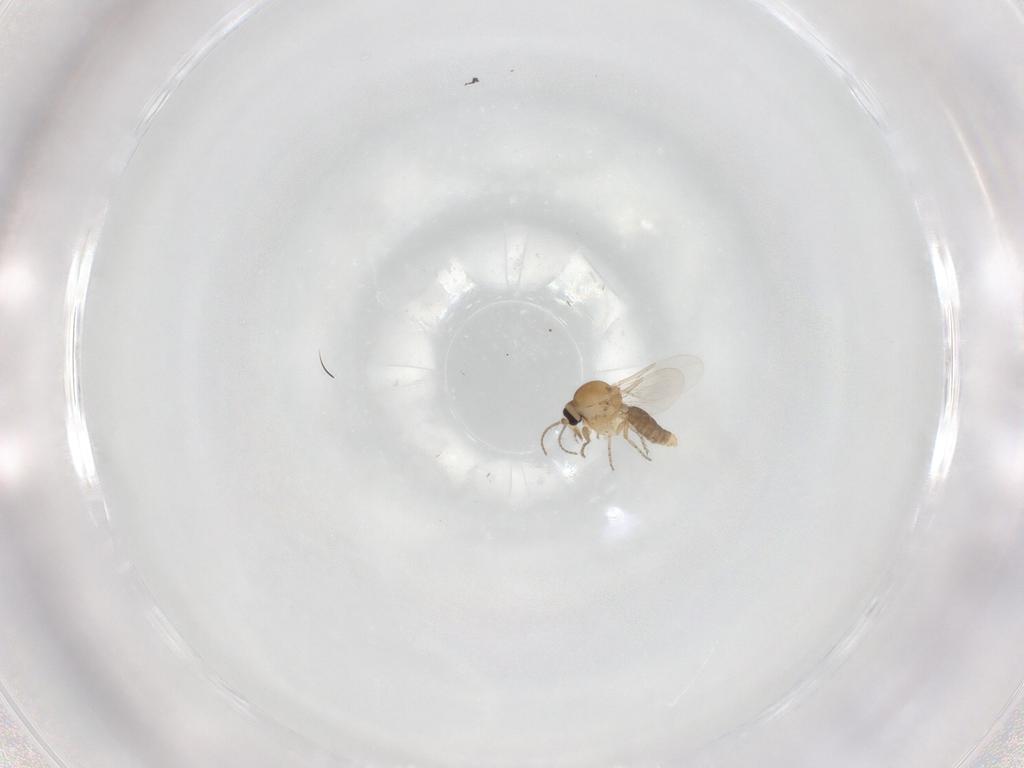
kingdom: Animalia
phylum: Arthropoda
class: Insecta
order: Diptera
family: Ceratopogonidae
